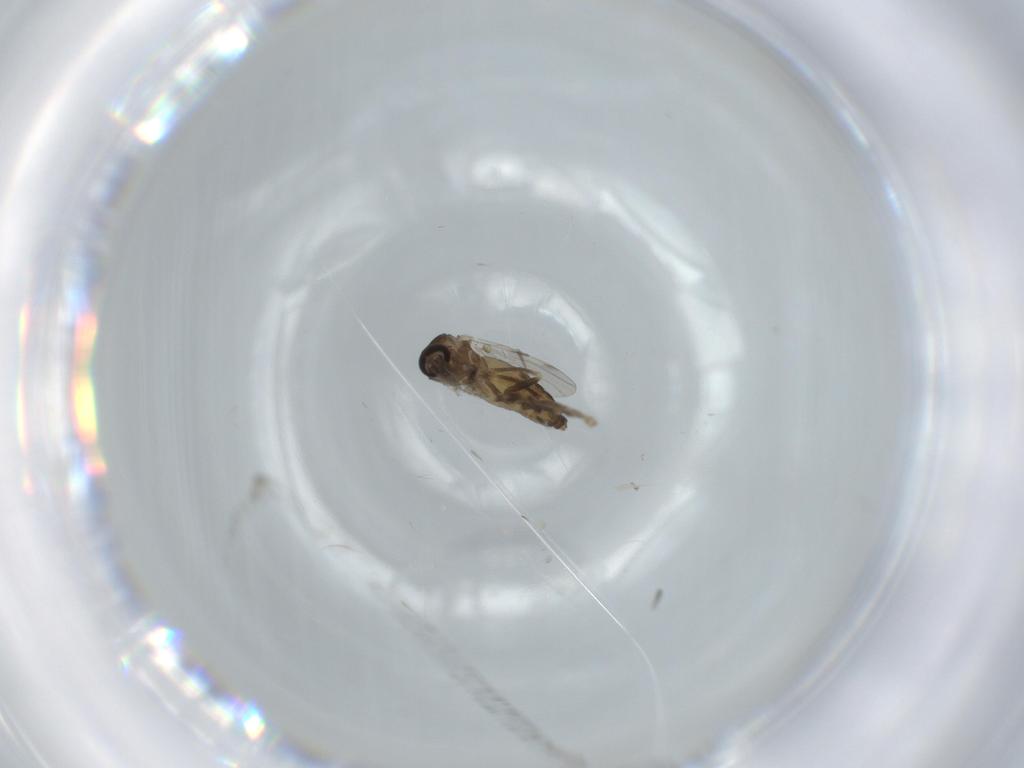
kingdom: Animalia
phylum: Arthropoda
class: Insecta
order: Diptera
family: Ceratopogonidae
